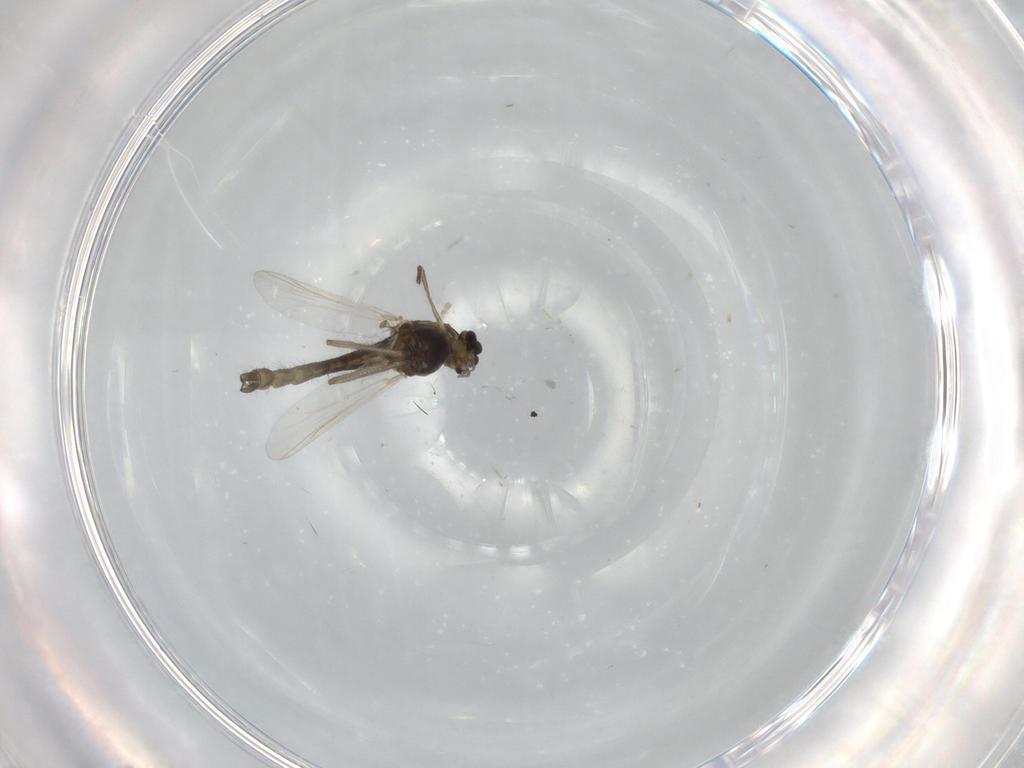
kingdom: Animalia
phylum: Arthropoda
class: Insecta
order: Diptera
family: Chironomidae
